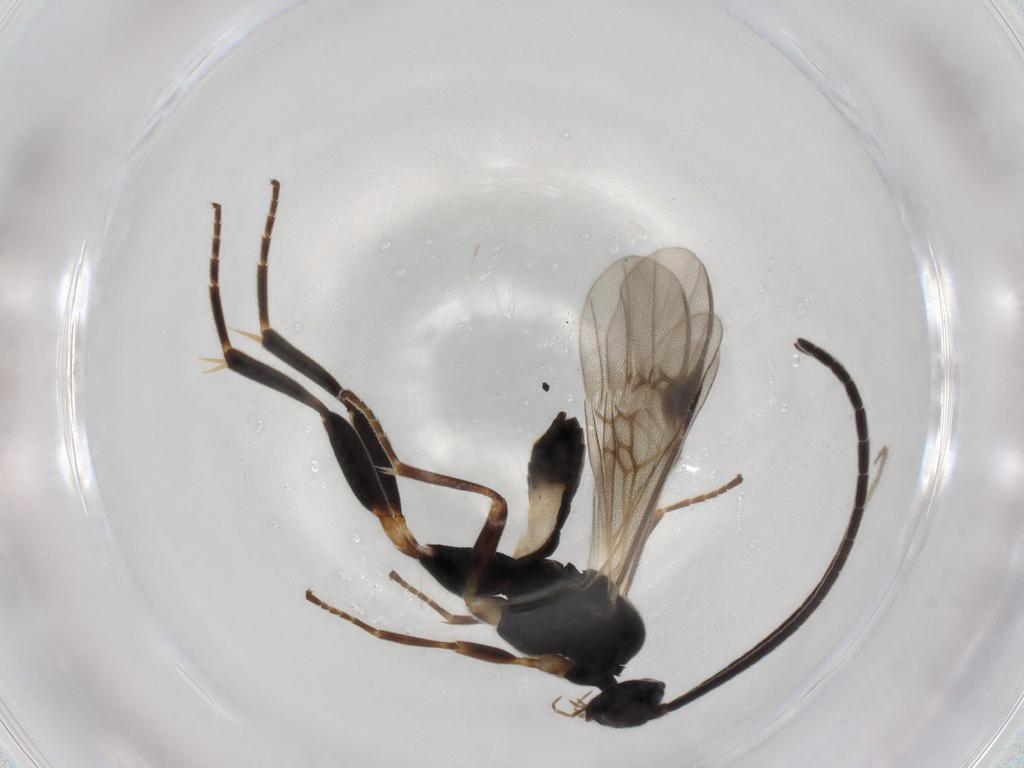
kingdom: Animalia
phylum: Arthropoda
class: Insecta
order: Hymenoptera
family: Braconidae
